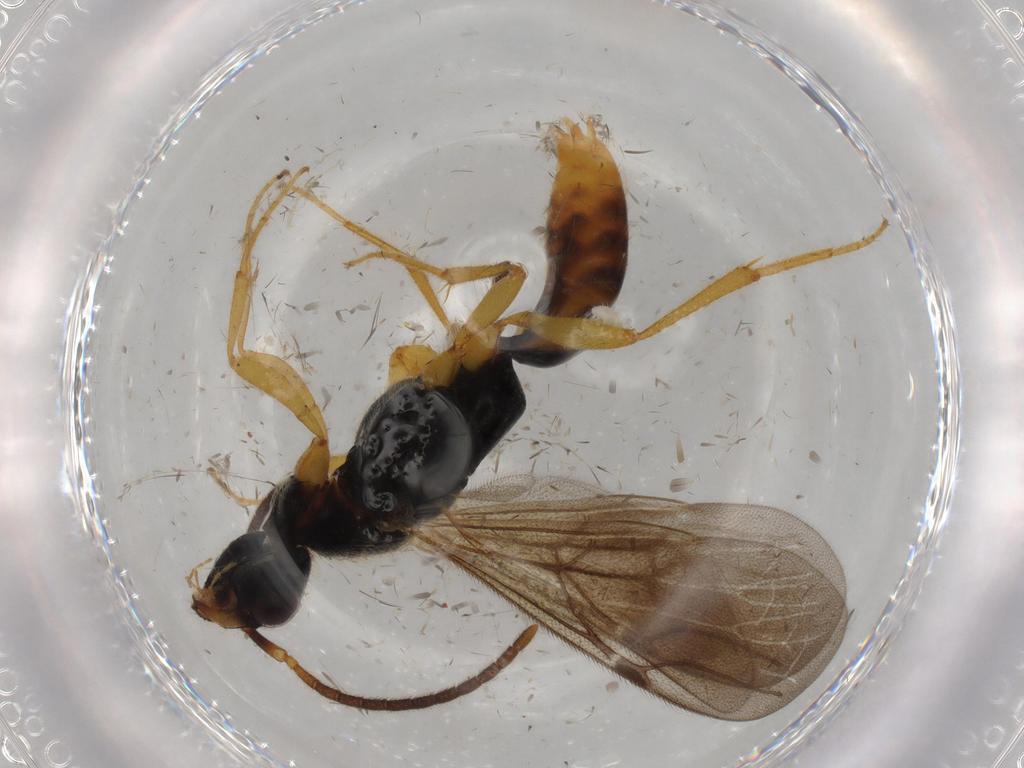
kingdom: Animalia
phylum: Arthropoda
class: Insecta
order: Hymenoptera
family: Bethylidae
